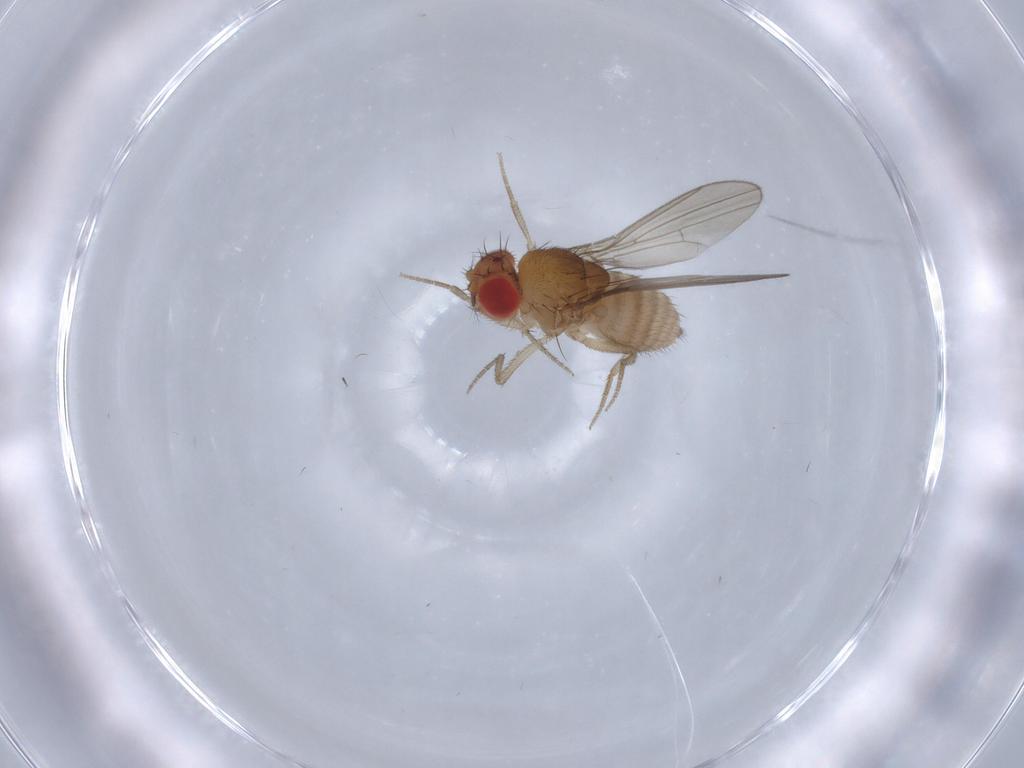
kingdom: Animalia
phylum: Arthropoda
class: Insecta
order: Diptera
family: Drosophilidae
